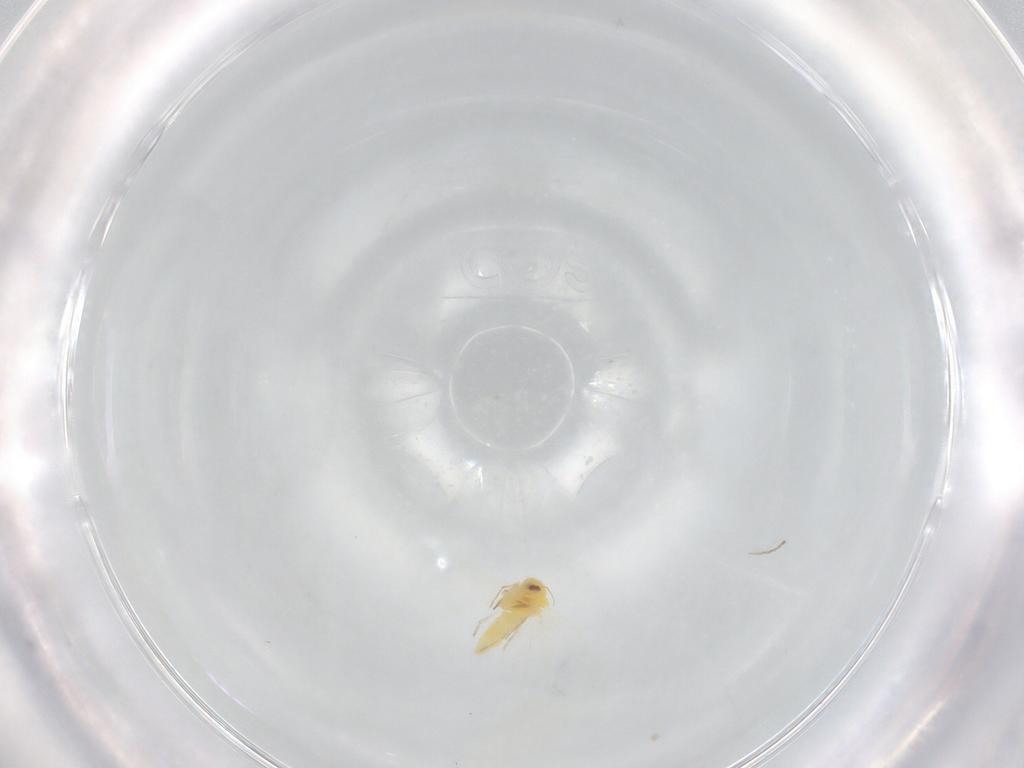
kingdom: Animalia
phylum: Arthropoda
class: Insecta
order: Diptera
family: Cecidomyiidae
